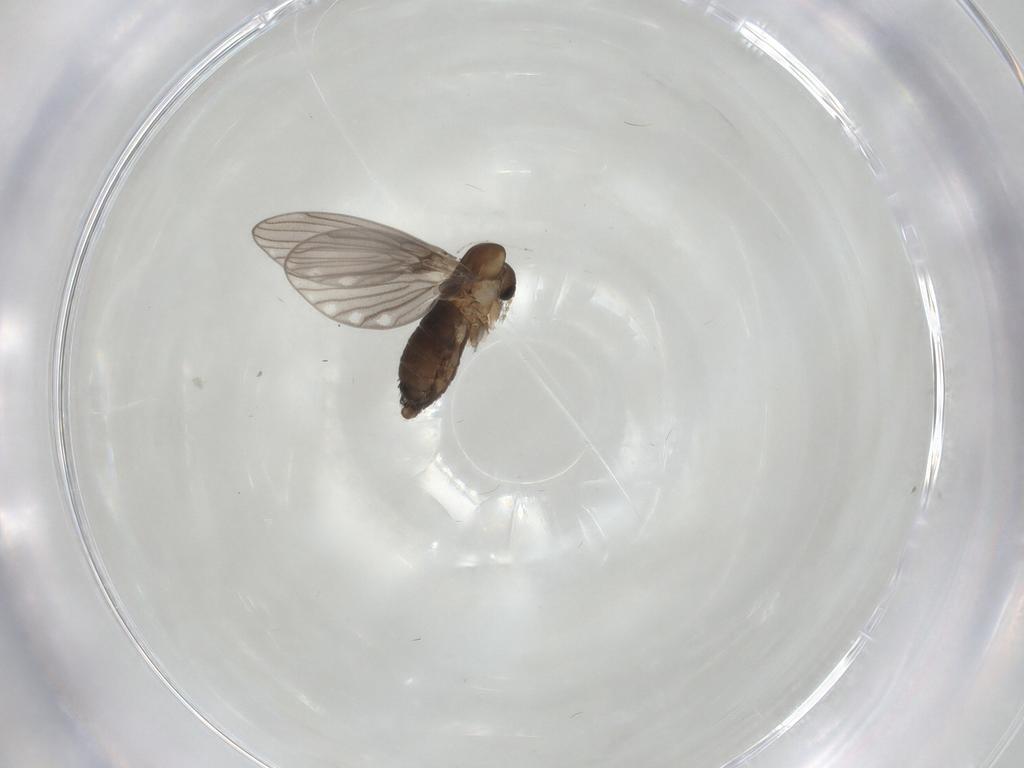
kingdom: Animalia
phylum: Arthropoda
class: Insecta
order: Diptera
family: Psychodidae
